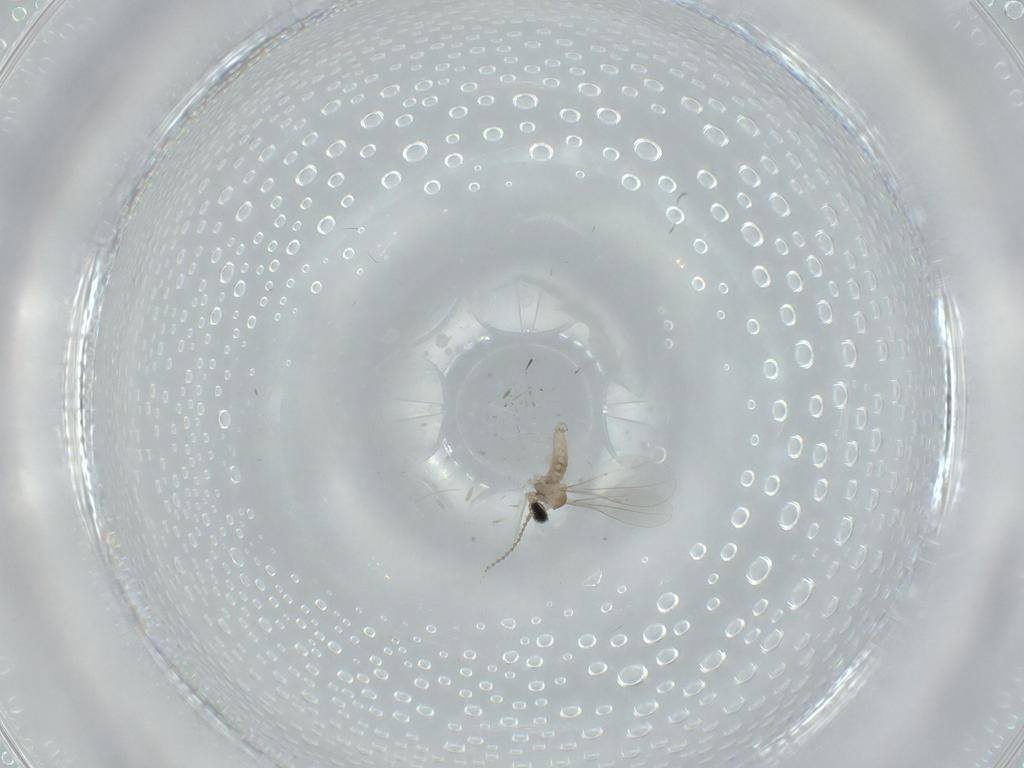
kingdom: Animalia
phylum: Arthropoda
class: Insecta
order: Diptera
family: Cecidomyiidae
